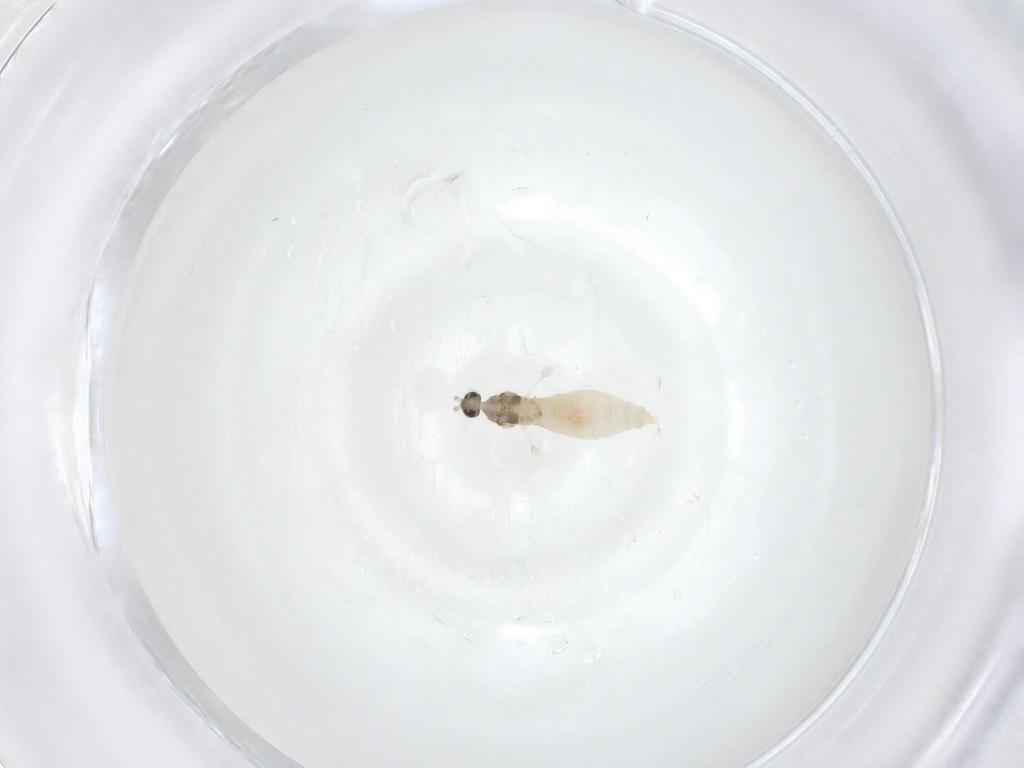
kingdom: Animalia
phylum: Arthropoda
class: Insecta
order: Diptera
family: Cecidomyiidae
